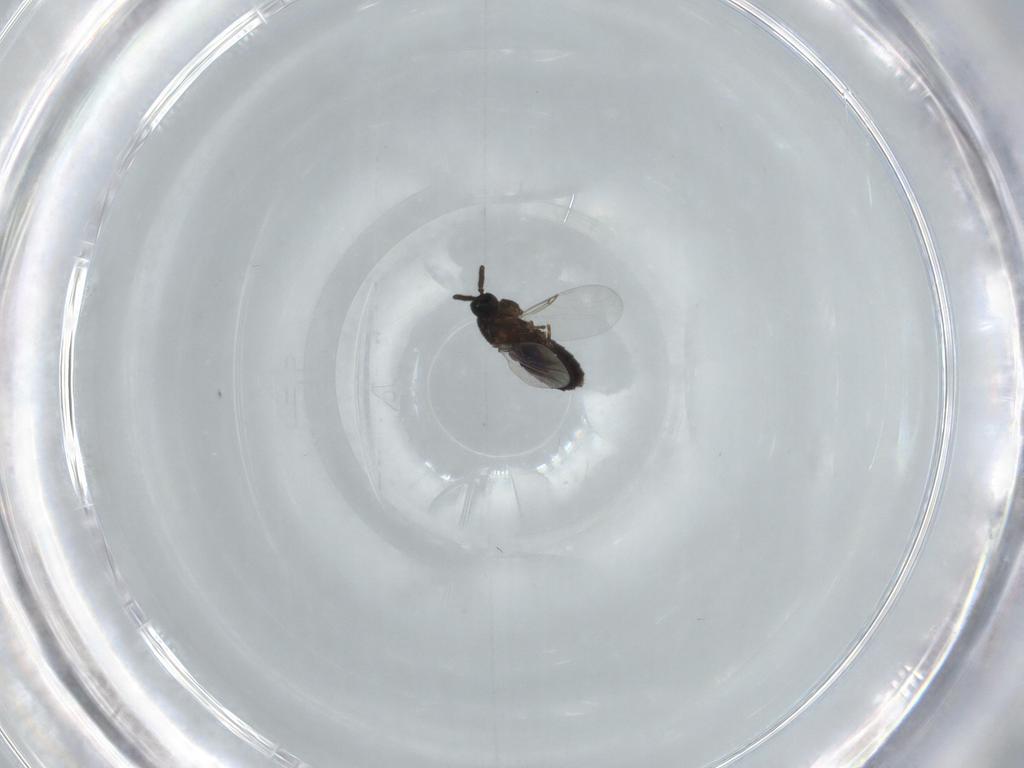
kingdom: Animalia
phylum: Arthropoda
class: Insecta
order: Diptera
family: Calliphoridae
